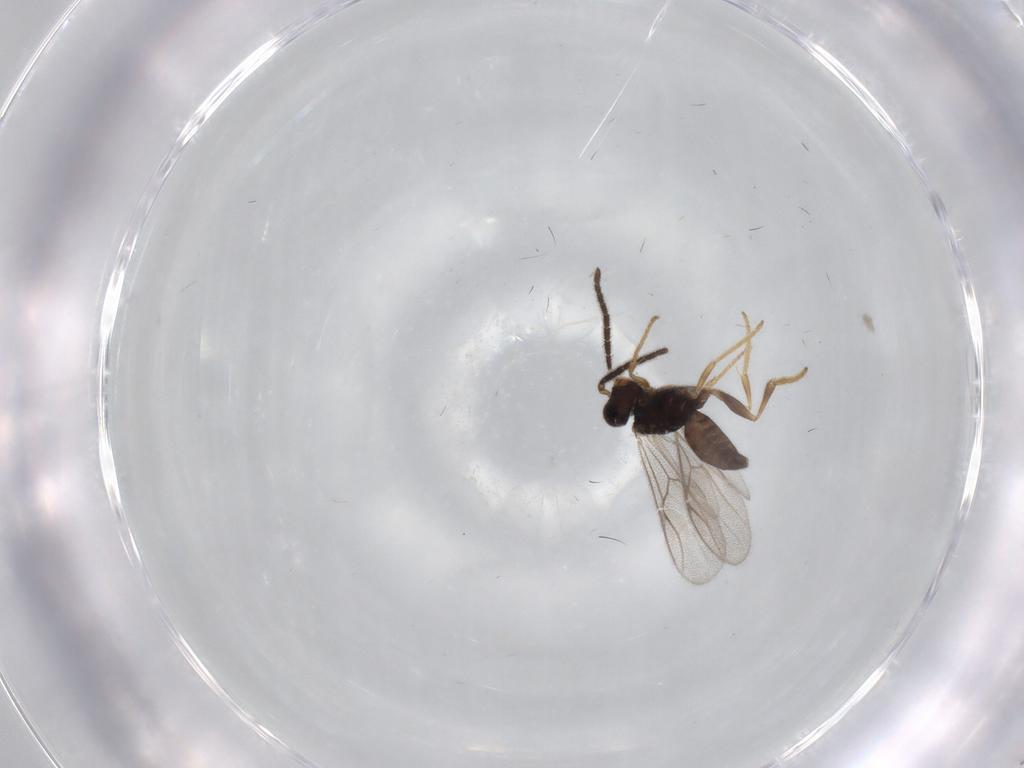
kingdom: Animalia
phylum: Arthropoda
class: Insecta
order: Hymenoptera
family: Dryinidae
